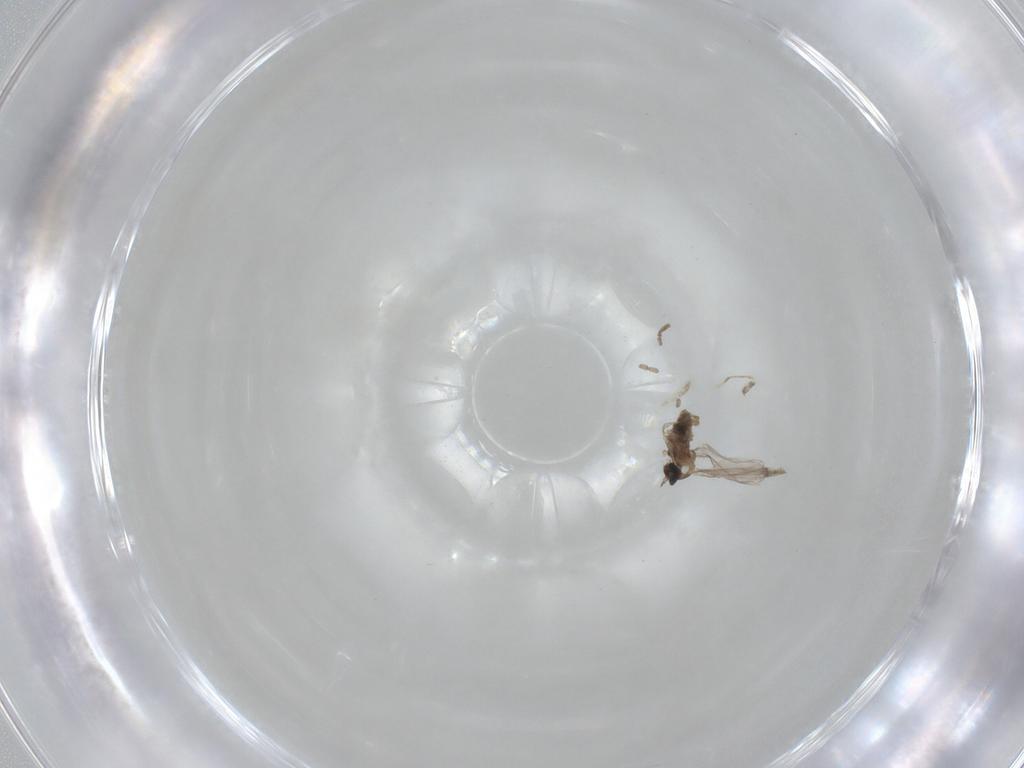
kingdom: Animalia
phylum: Arthropoda
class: Insecta
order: Diptera
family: Cecidomyiidae
